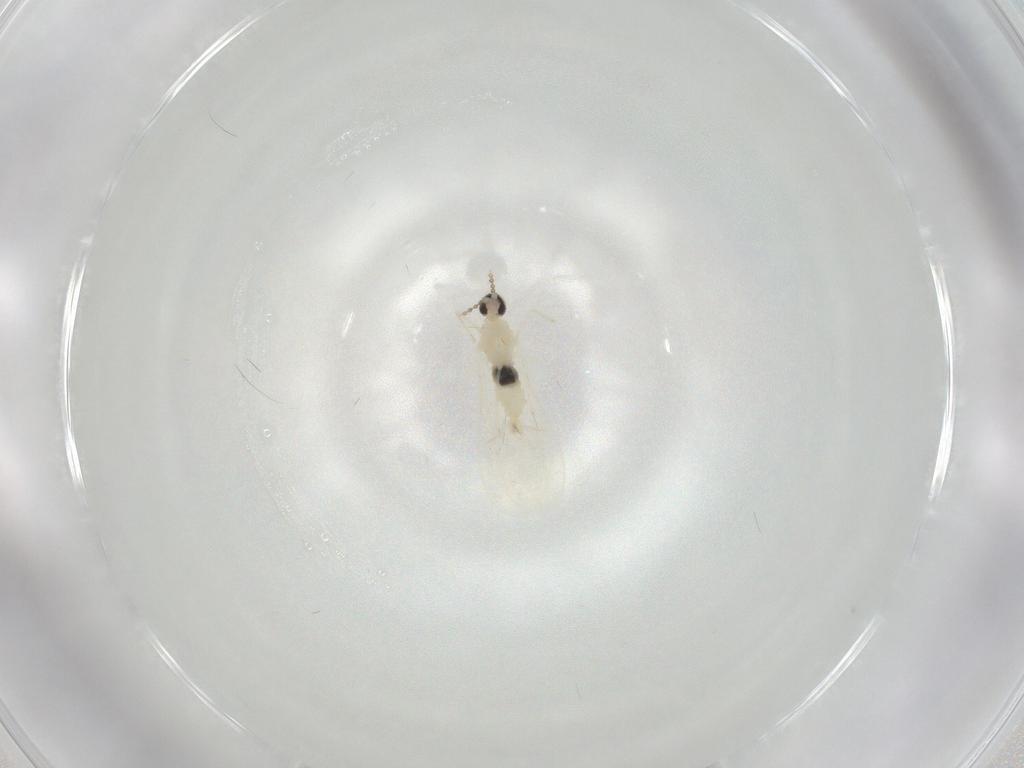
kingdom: Animalia
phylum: Arthropoda
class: Insecta
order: Diptera
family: Cecidomyiidae
